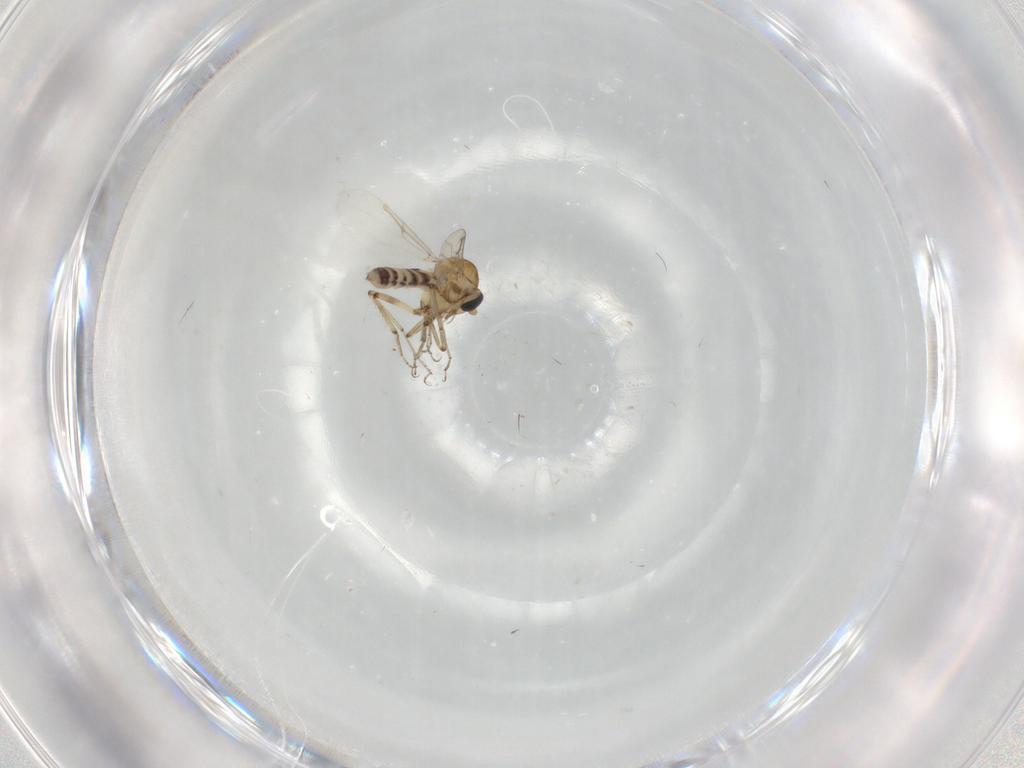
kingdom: Animalia
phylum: Arthropoda
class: Insecta
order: Diptera
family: Ceratopogonidae
